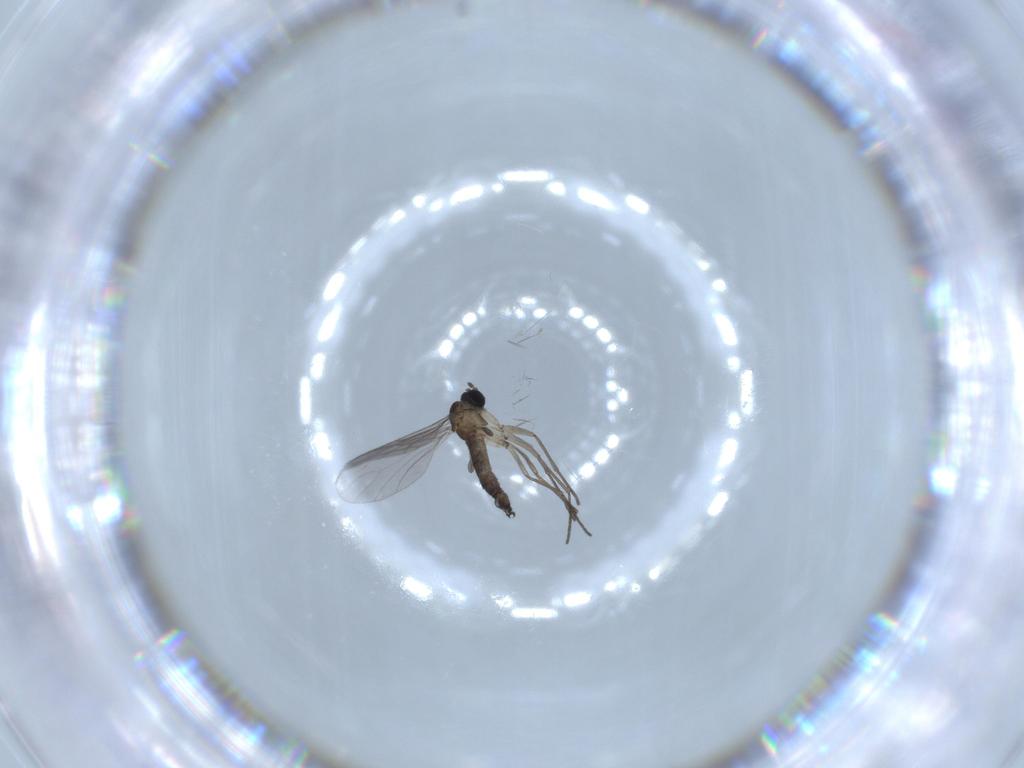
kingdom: Animalia
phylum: Arthropoda
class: Insecta
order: Diptera
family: Sciaridae
